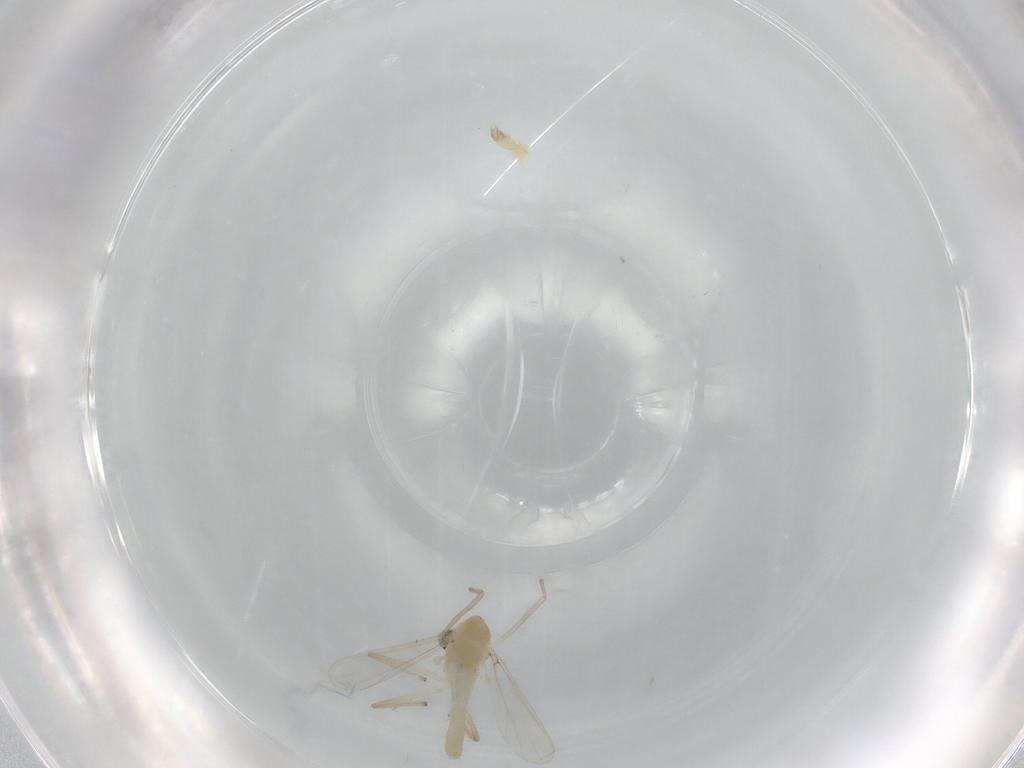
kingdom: Animalia
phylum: Arthropoda
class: Insecta
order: Diptera
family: Chironomidae
